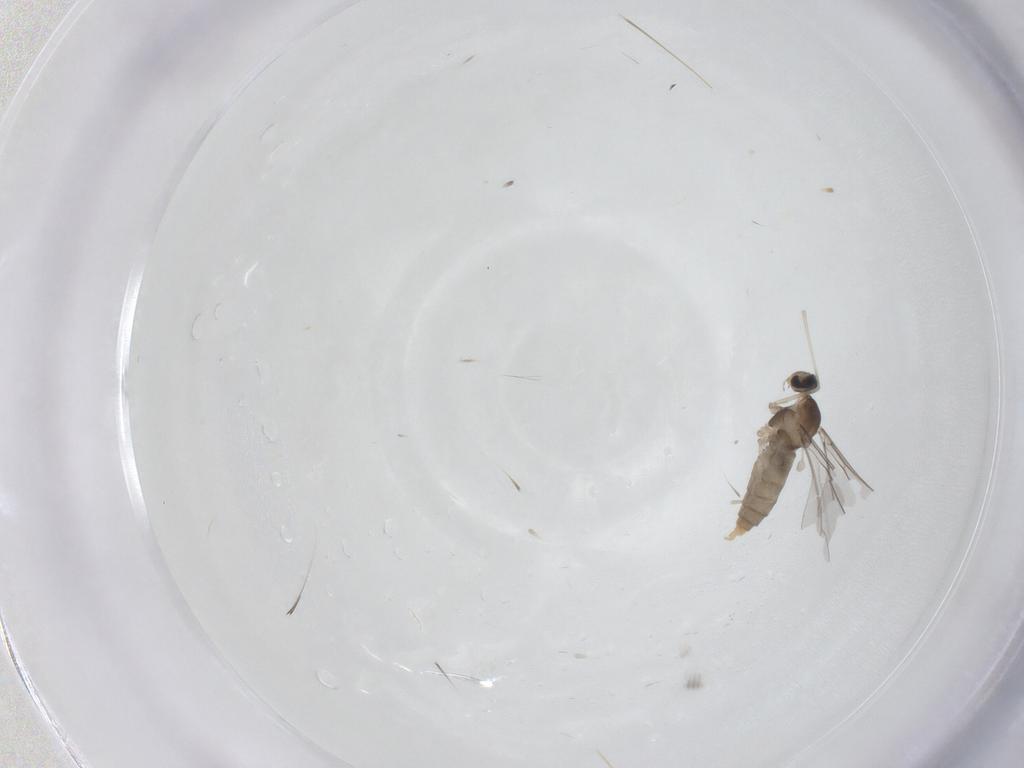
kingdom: Animalia
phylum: Arthropoda
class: Insecta
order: Diptera
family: Cecidomyiidae
